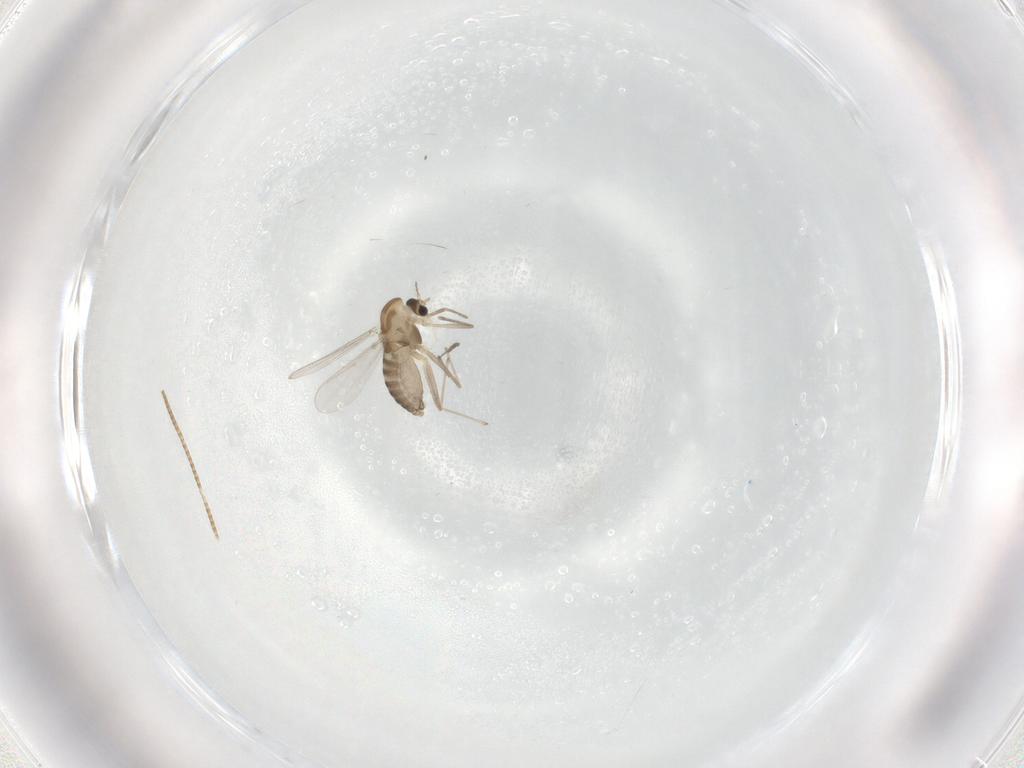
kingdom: Animalia
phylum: Arthropoda
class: Insecta
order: Diptera
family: Chironomidae
